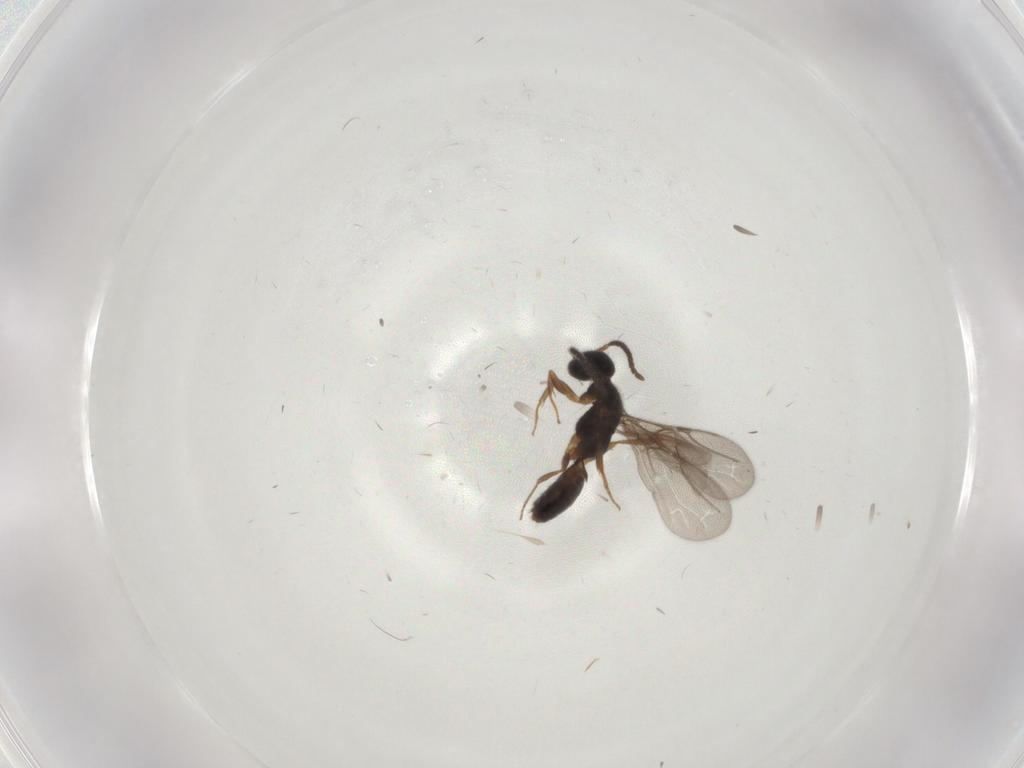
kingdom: Animalia
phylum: Arthropoda
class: Insecta
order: Hymenoptera
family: Bethylidae
